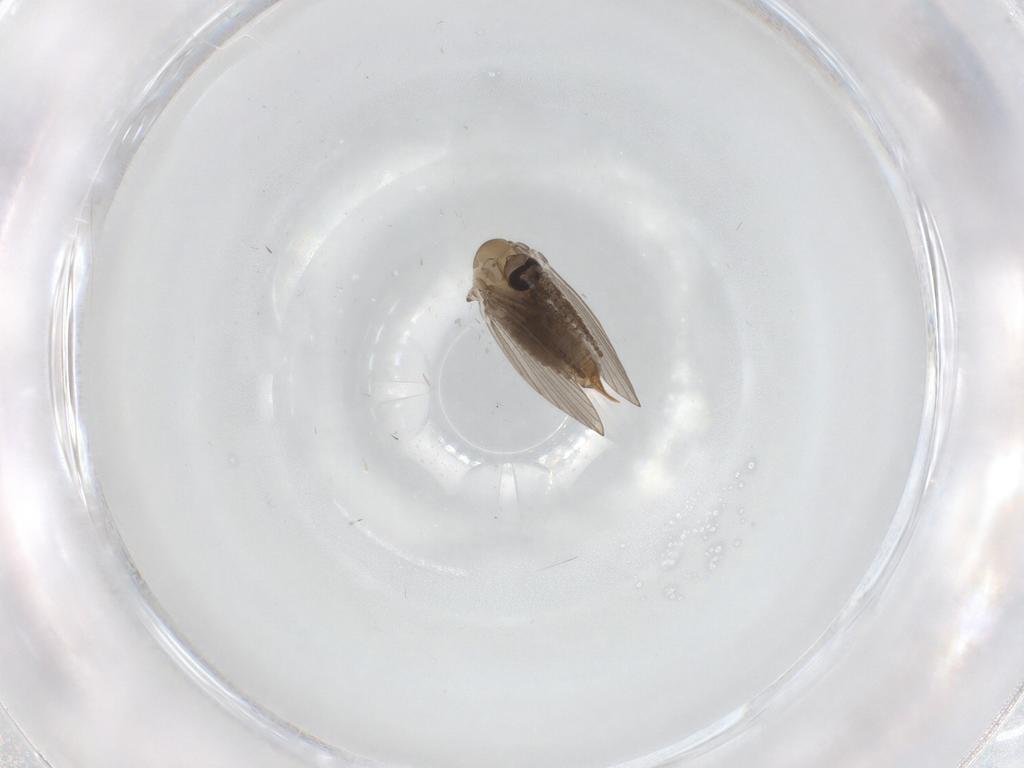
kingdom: Animalia
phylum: Arthropoda
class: Insecta
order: Diptera
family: Psychodidae
